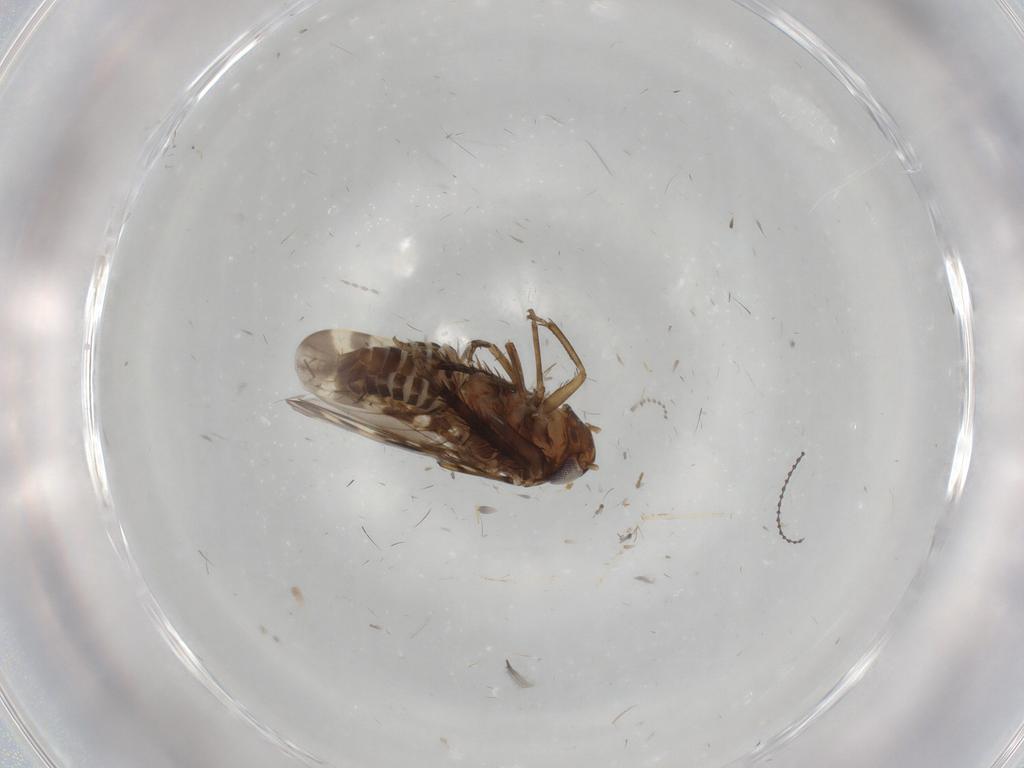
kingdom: Animalia
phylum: Arthropoda
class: Insecta
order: Hemiptera
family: Cicadellidae
